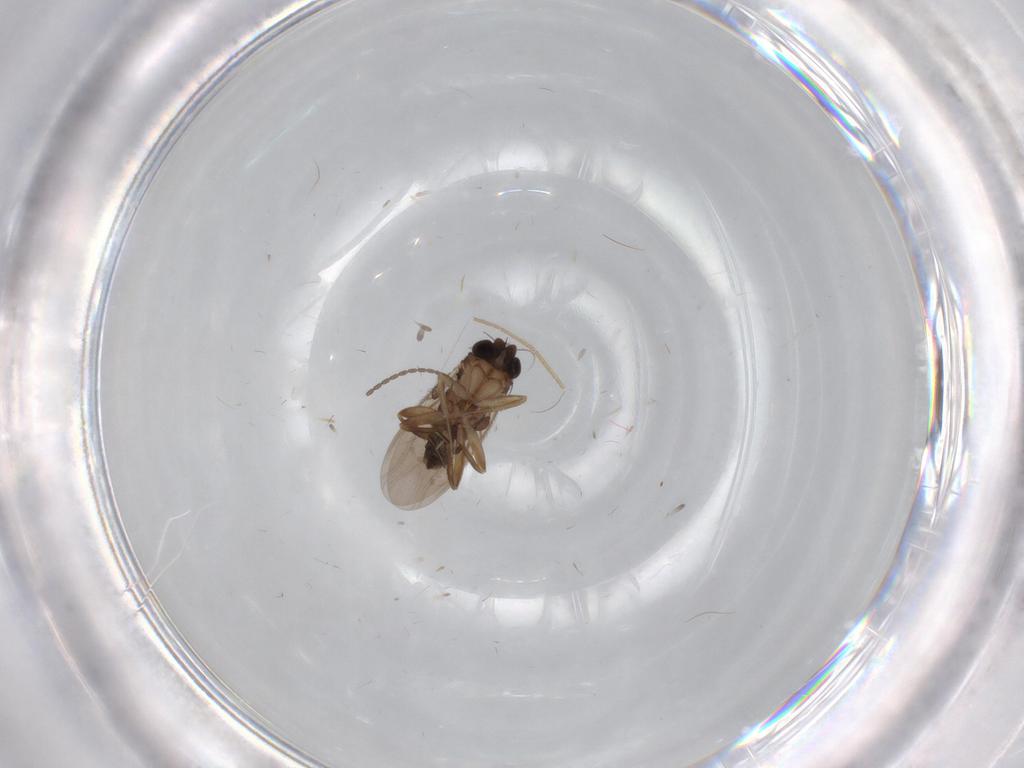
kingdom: Animalia
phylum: Arthropoda
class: Insecta
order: Diptera
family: Phoridae
